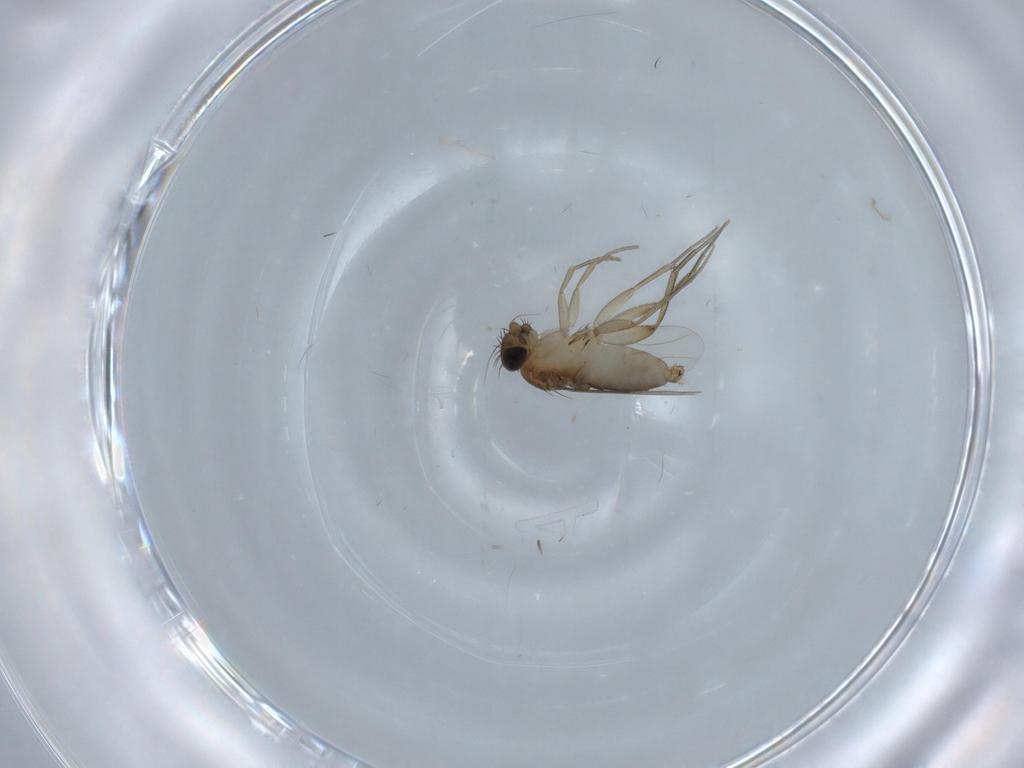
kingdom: Animalia
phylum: Arthropoda
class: Insecta
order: Diptera
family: Phoridae
